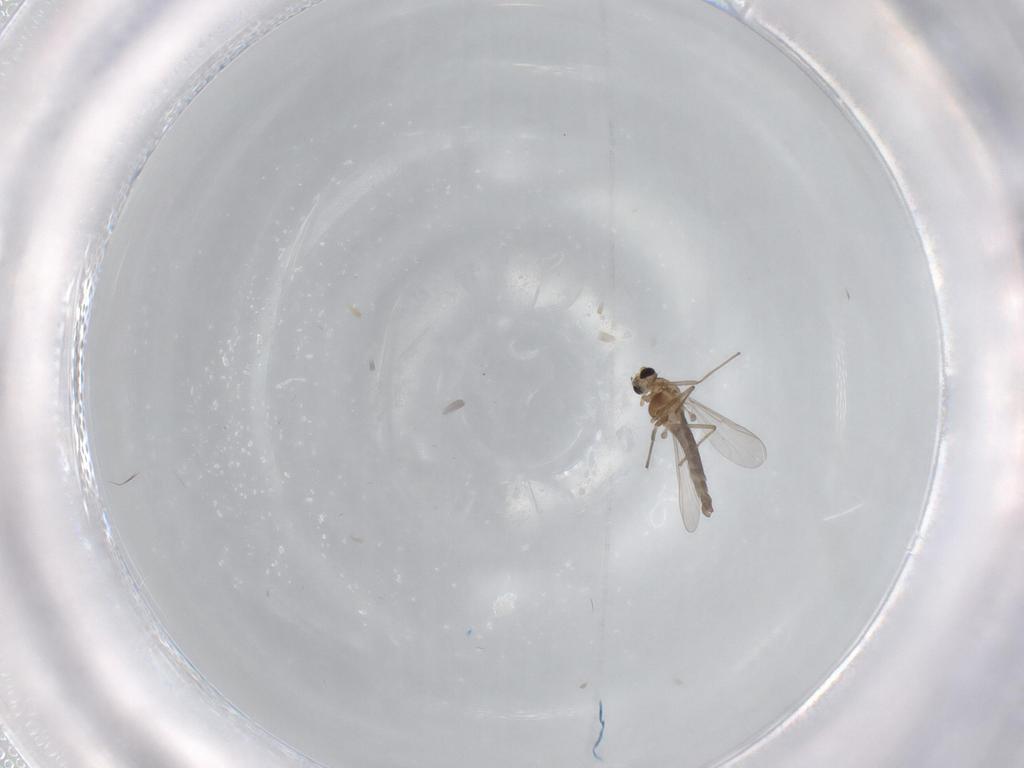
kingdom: Animalia
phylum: Arthropoda
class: Insecta
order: Diptera
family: Chironomidae
